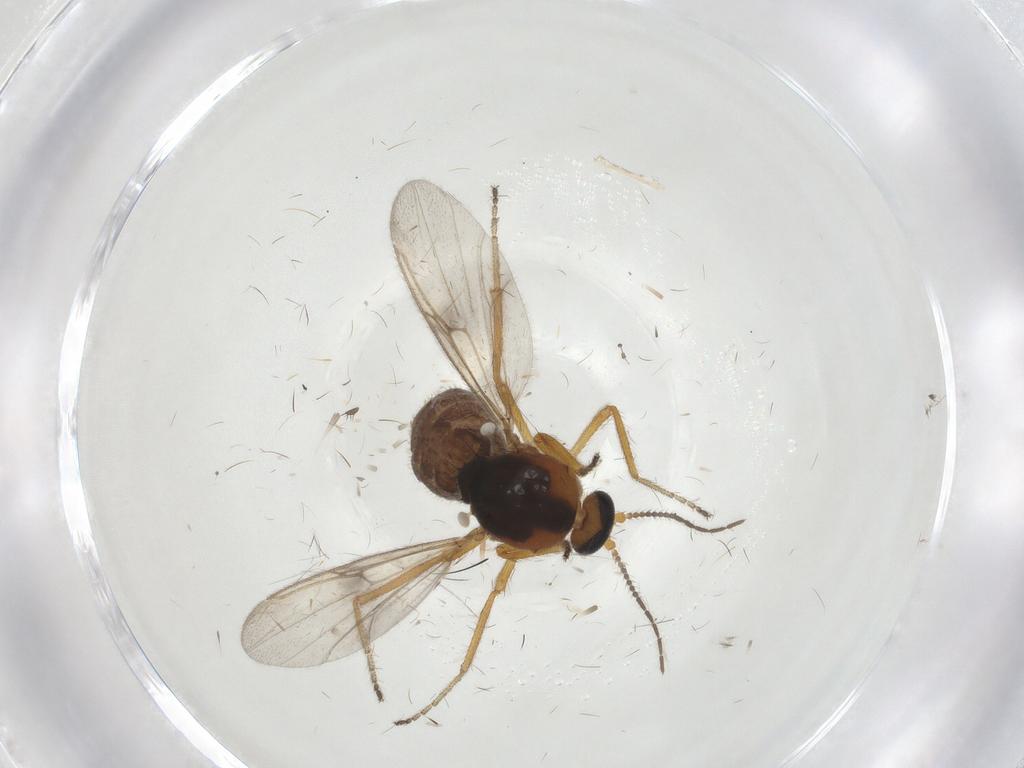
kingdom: Animalia
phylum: Arthropoda
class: Insecta
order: Diptera
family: Ceratopogonidae
